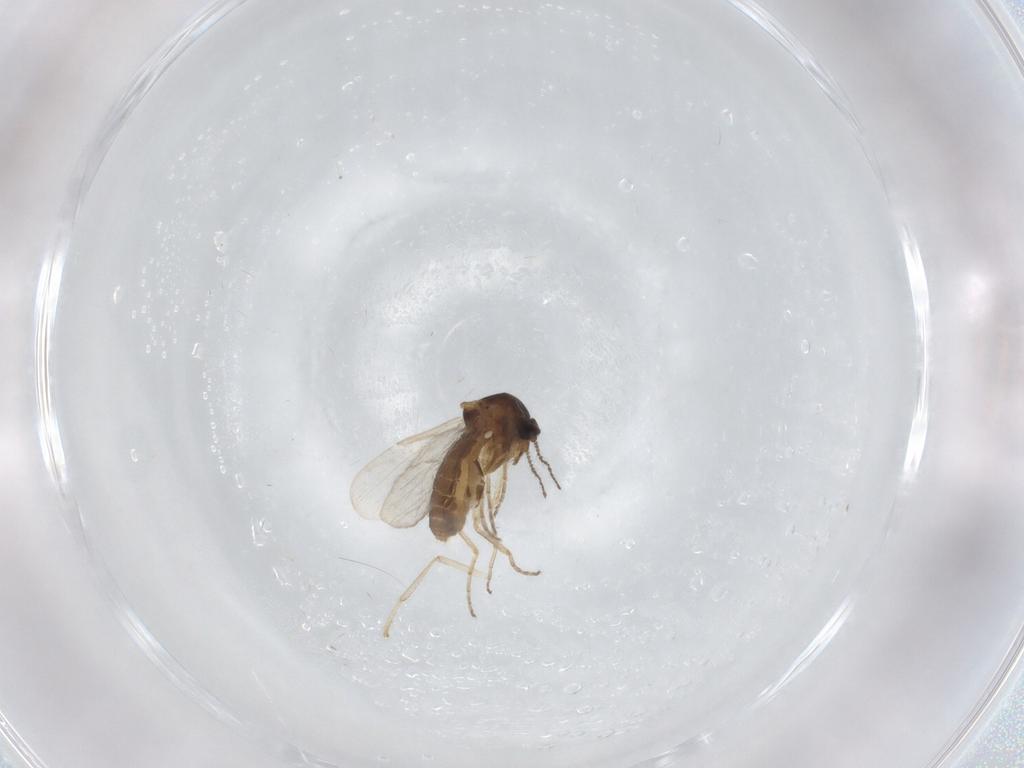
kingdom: Animalia
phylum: Arthropoda
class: Insecta
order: Diptera
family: Ceratopogonidae
